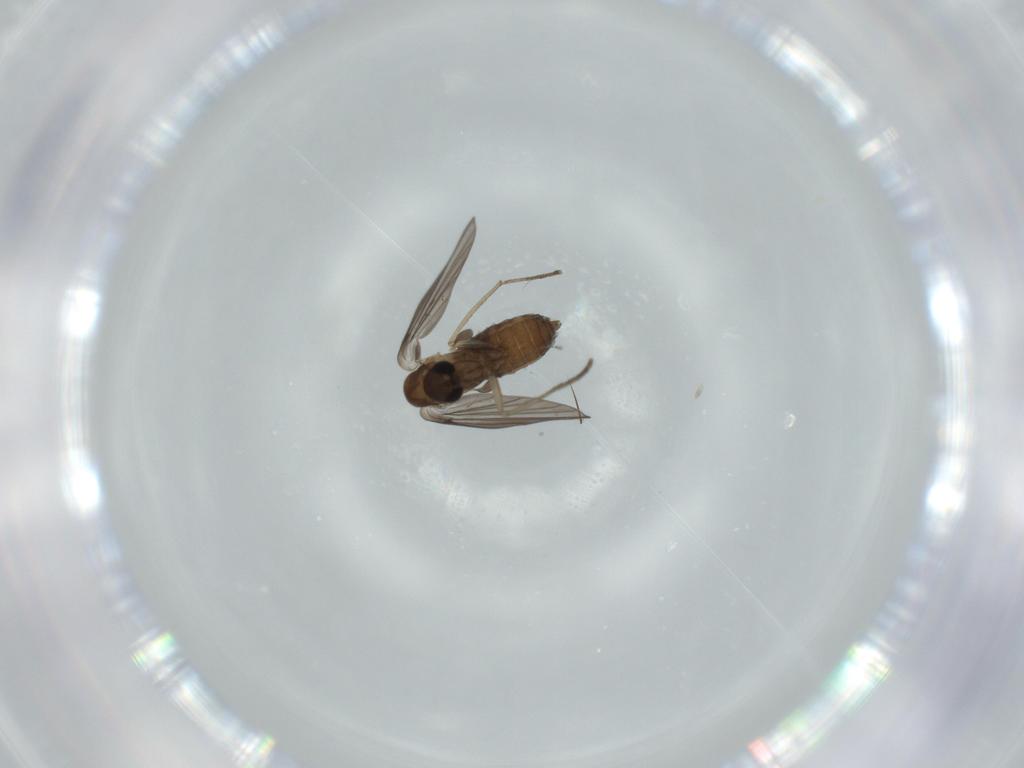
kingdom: Animalia
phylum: Arthropoda
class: Insecta
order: Diptera
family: Psychodidae
